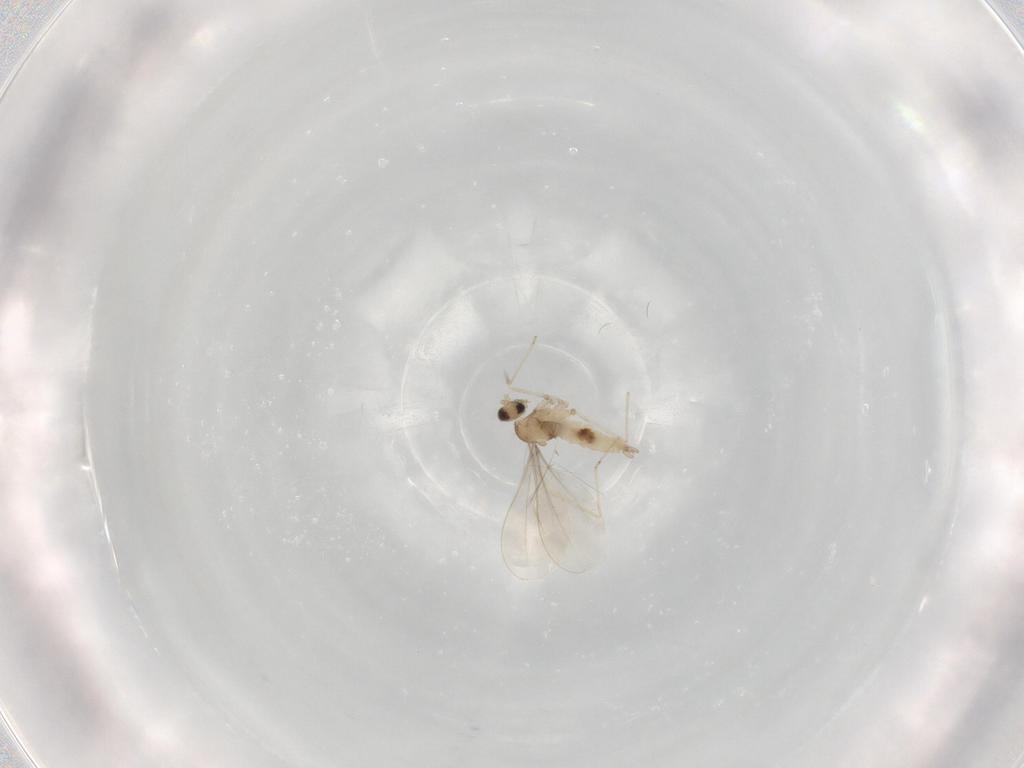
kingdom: Animalia
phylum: Arthropoda
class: Insecta
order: Diptera
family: Cecidomyiidae
